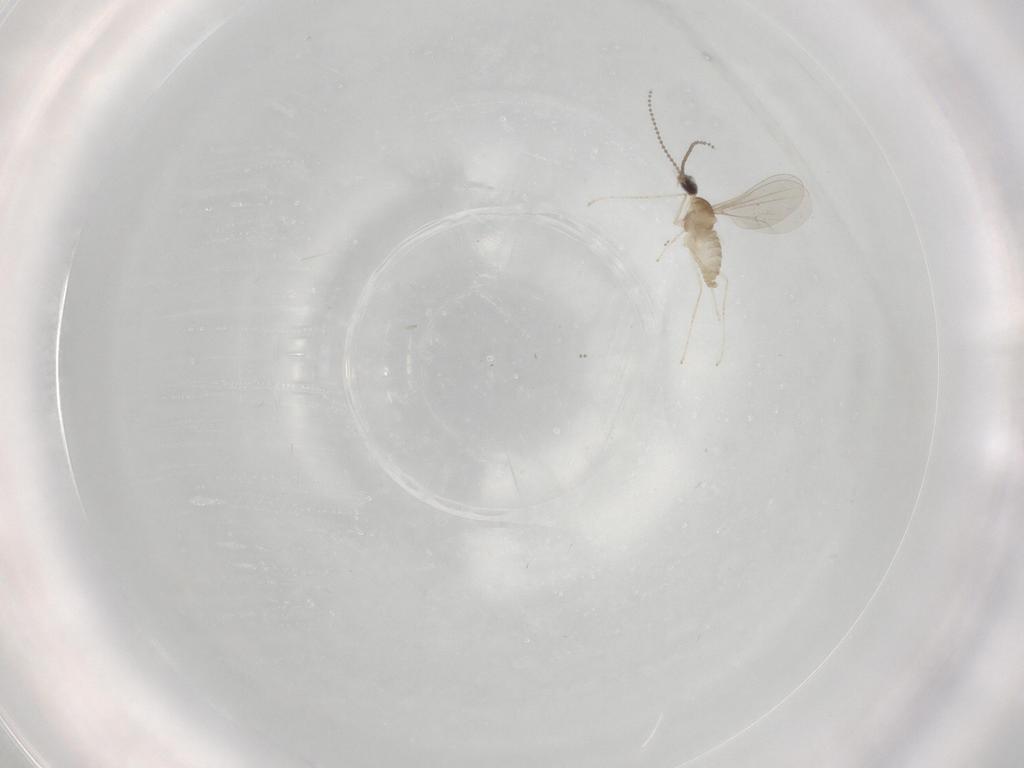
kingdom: Animalia
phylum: Arthropoda
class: Insecta
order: Diptera
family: Cecidomyiidae
